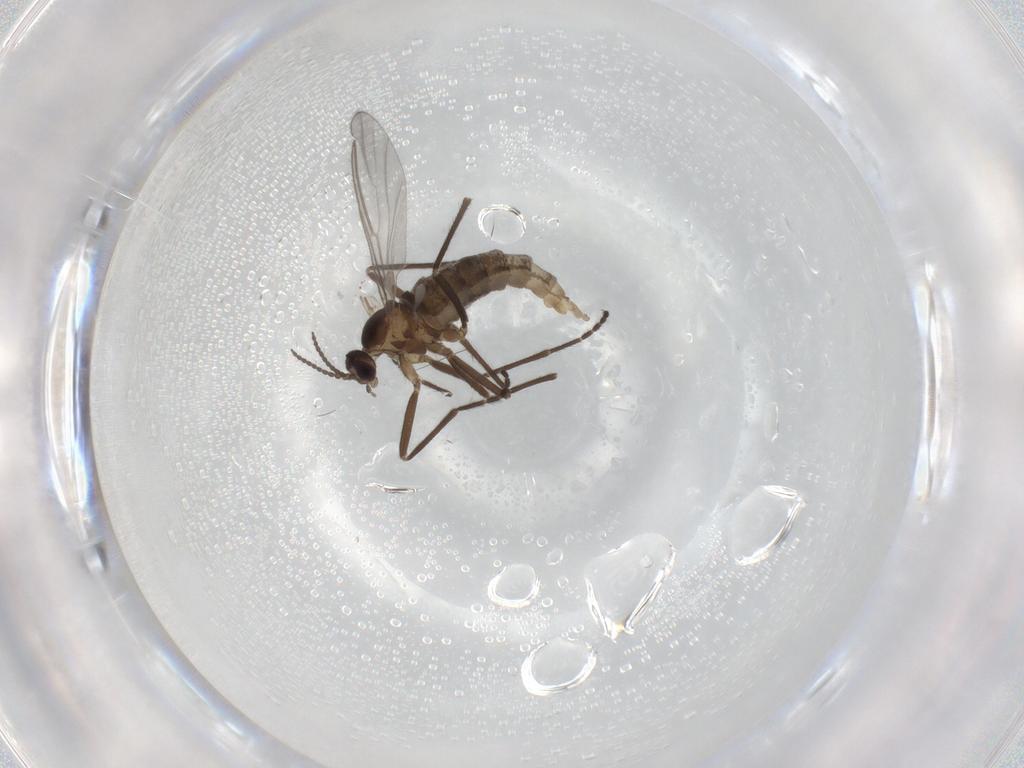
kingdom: Animalia
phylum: Arthropoda
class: Insecta
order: Diptera
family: Cecidomyiidae
